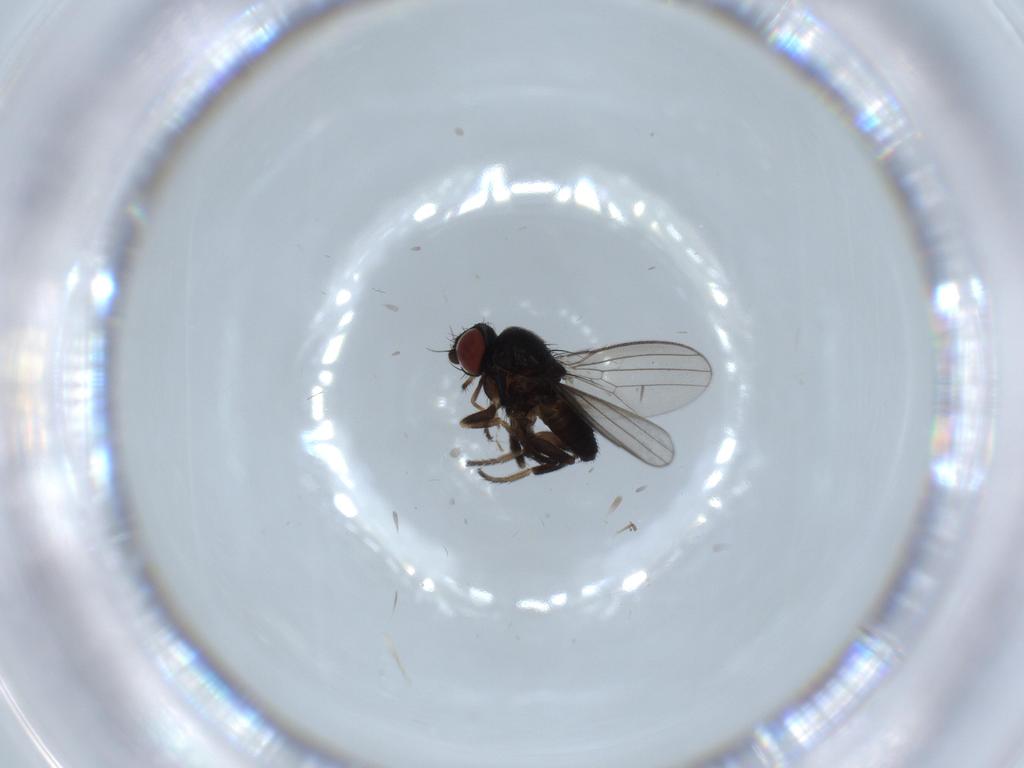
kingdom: Animalia
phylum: Arthropoda
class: Insecta
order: Diptera
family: Milichiidae
